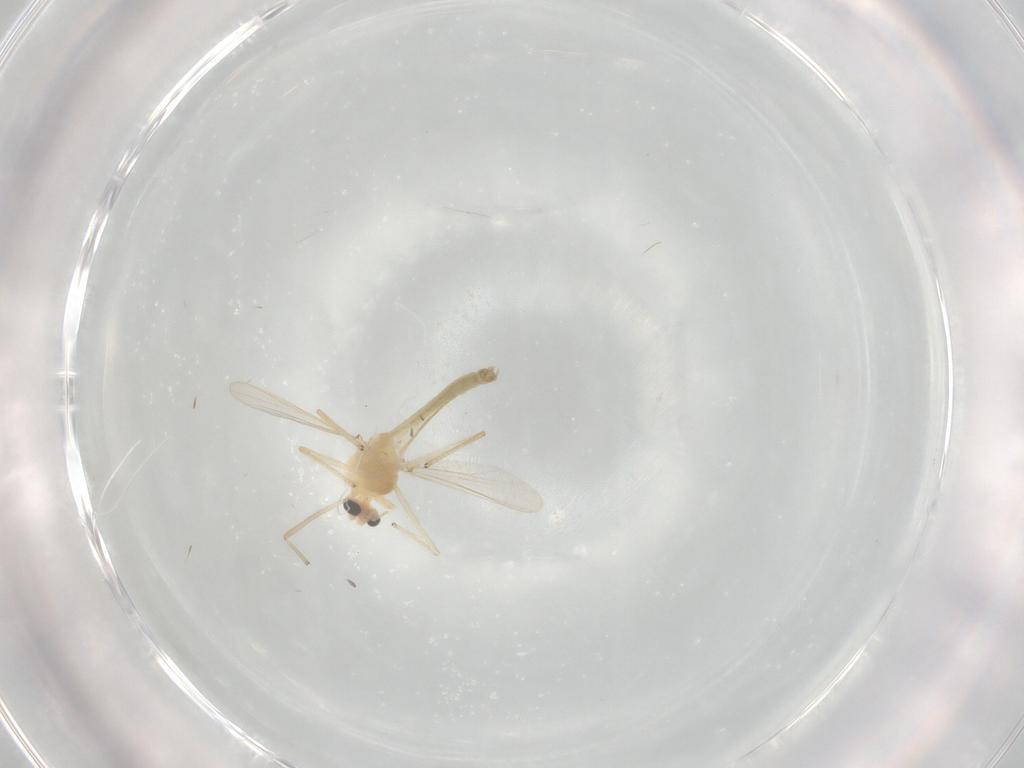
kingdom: Animalia
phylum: Arthropoda
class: Insecta
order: Diptera
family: Chironomidae
